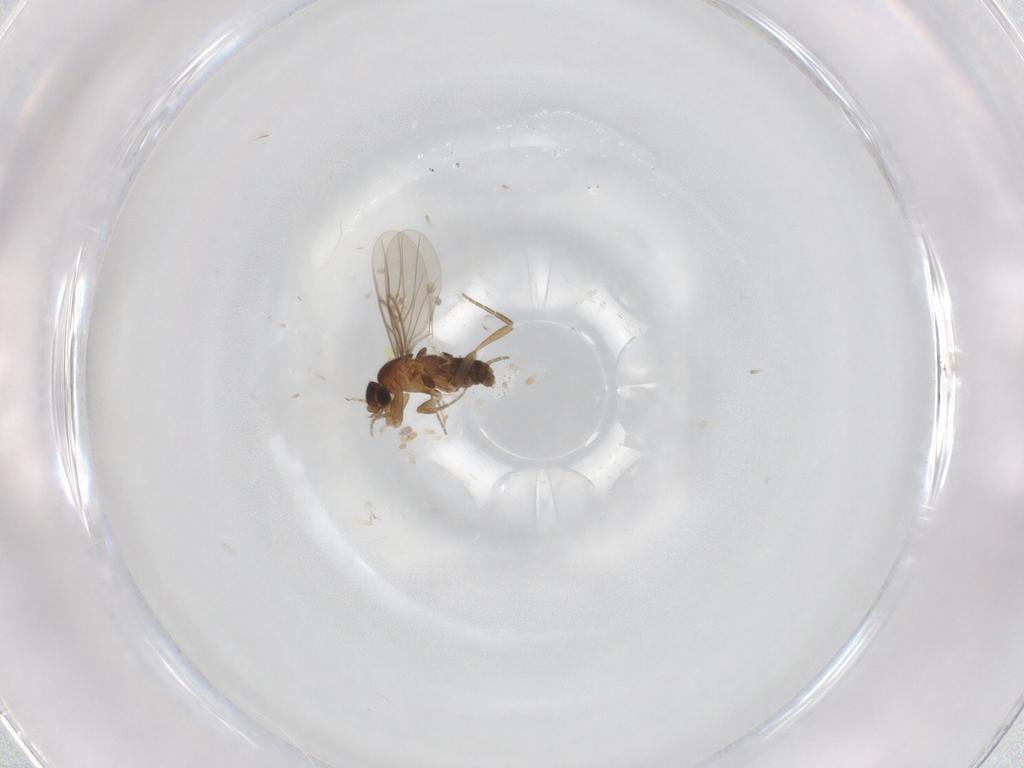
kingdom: Animalia
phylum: Arthropoda
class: Insecta
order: Diptera
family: Phoridae
